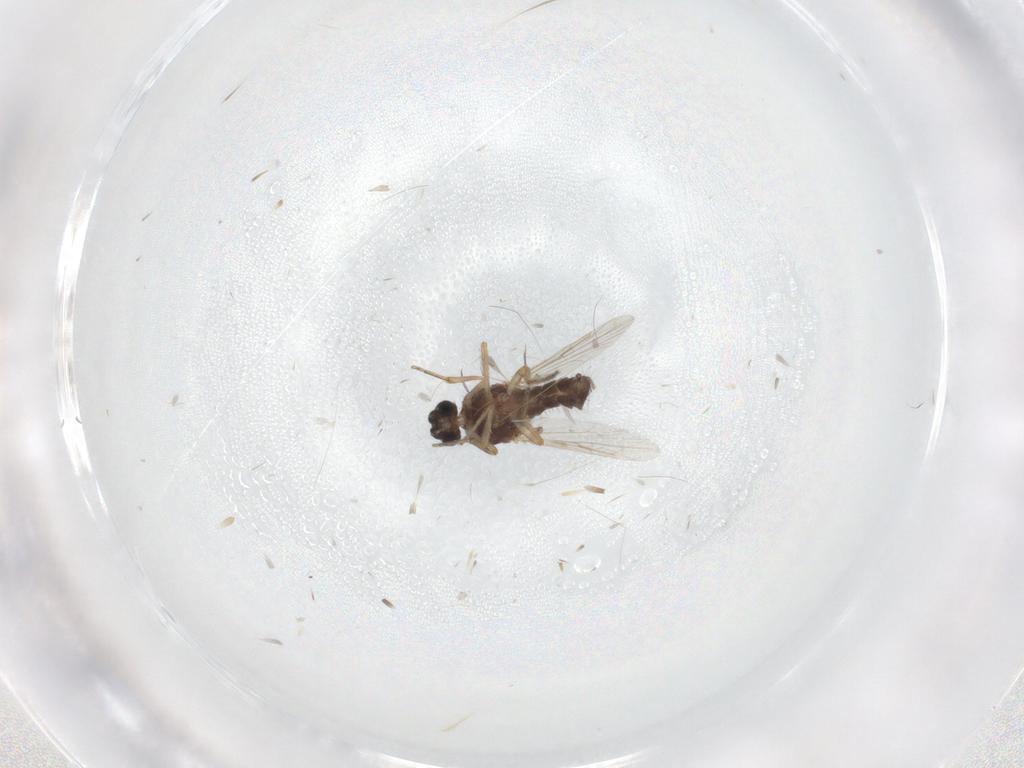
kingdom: Animalia
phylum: Arthropoda
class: Insecta
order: Diptera
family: Ceratopogonidae
